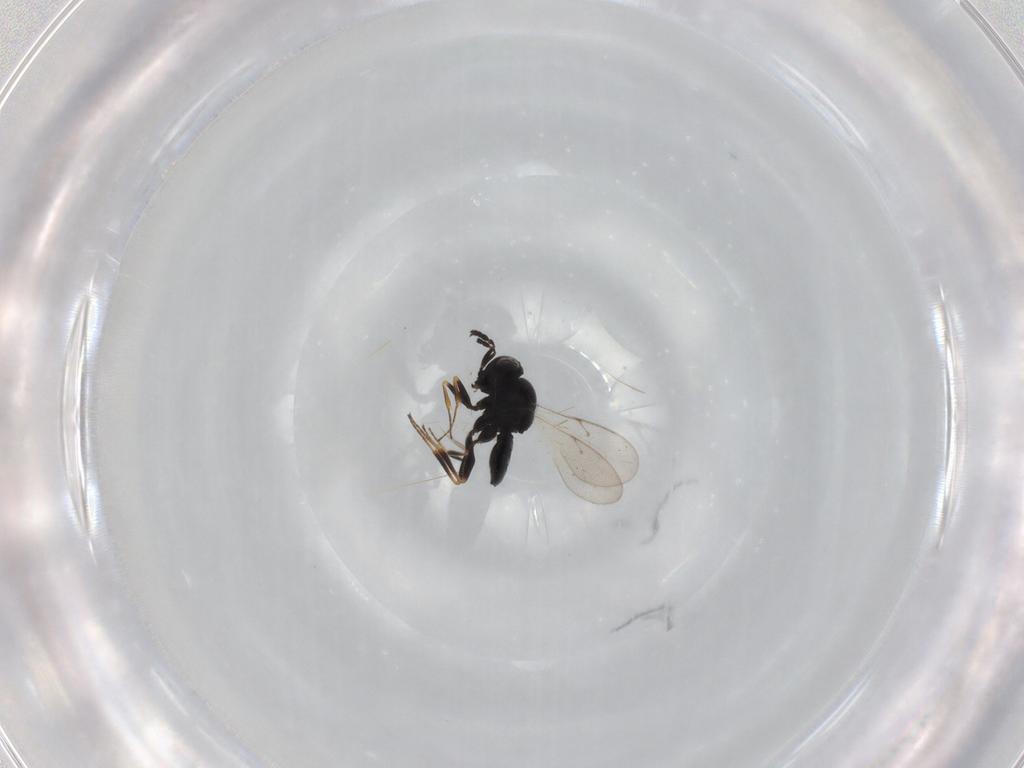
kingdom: Animalia
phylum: Arthropoda
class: Insecta
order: Hymenoptera
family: Scelionidae
